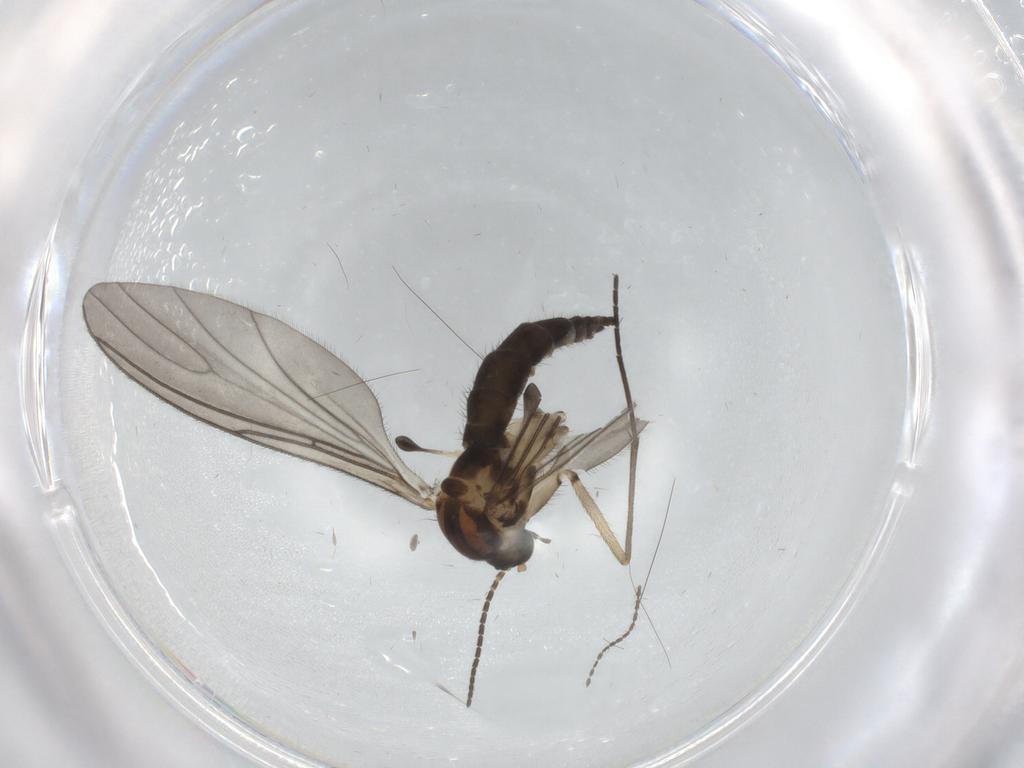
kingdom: Animalia
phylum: Arthropoda
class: Insecta
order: Diptera
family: Sciaridae
